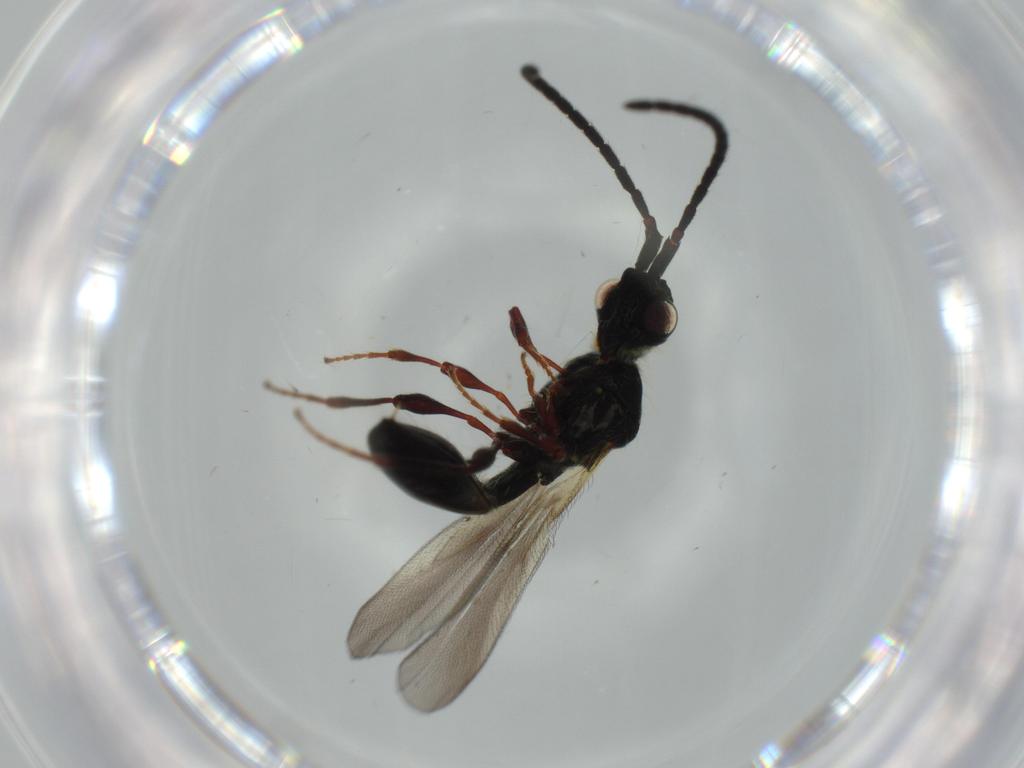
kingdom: Animalia
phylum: Arthropoda
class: Insecta
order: Hymenoptera
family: Diapriidae
